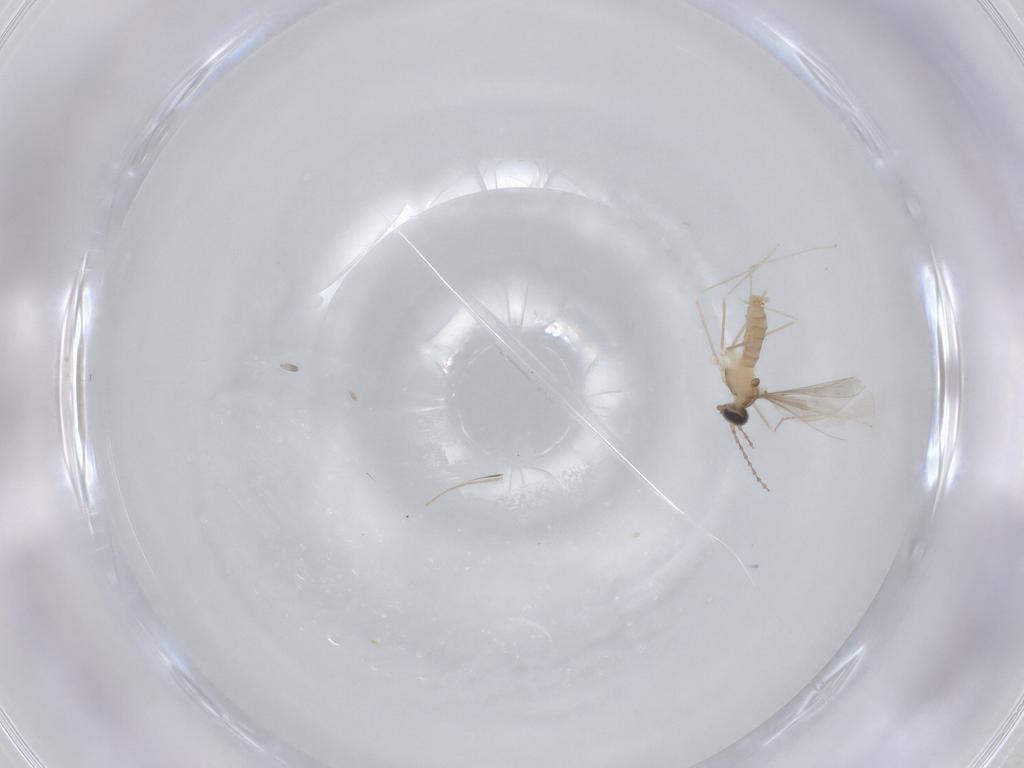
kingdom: Animalia
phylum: Arthropoda
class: Insecta
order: Diptera
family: Cecidomyiidae
